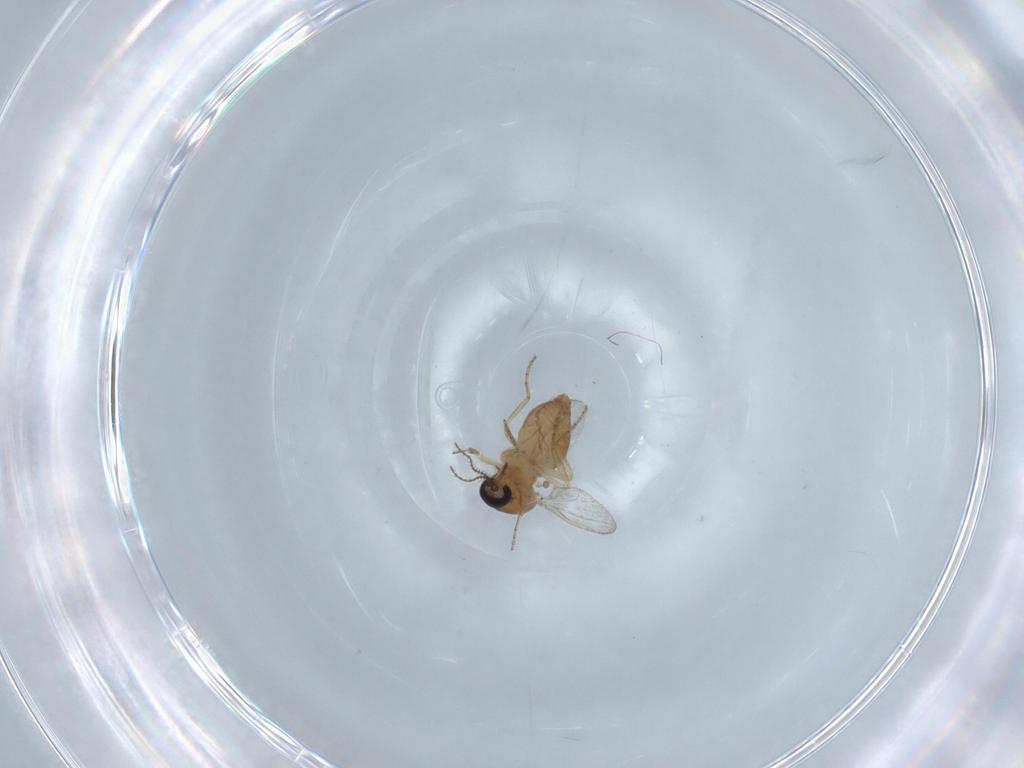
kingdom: Animalia
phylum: Arthropoda
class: Insecta
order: Diptera
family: Ceratopogonidae
